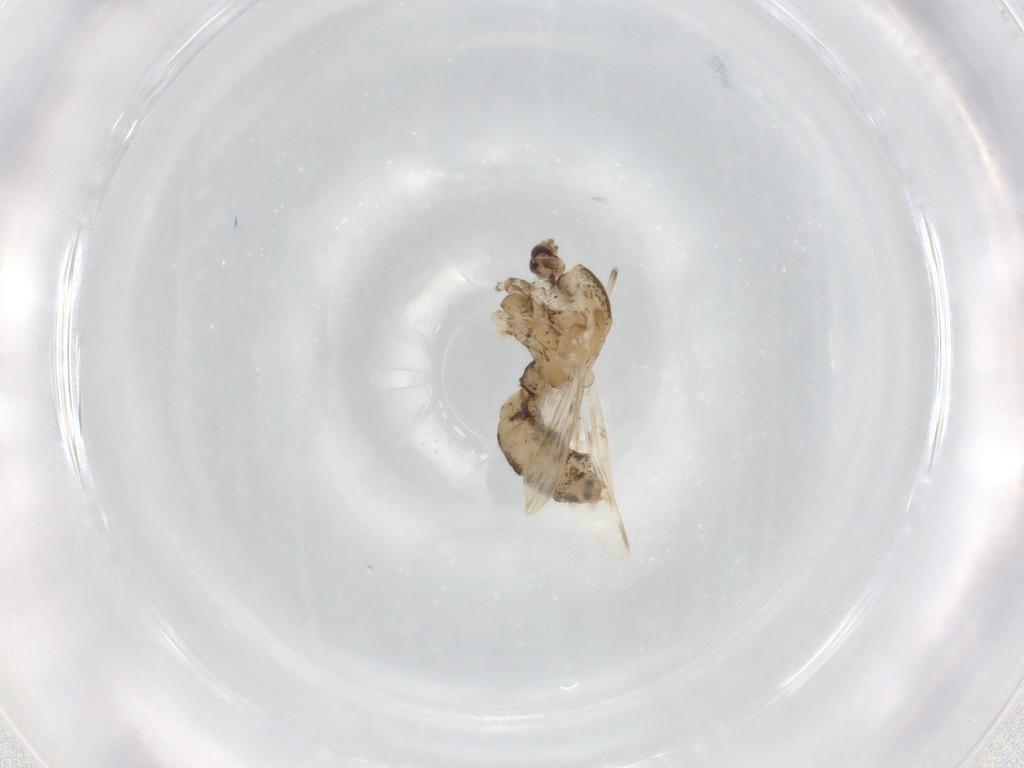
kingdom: Animalia
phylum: Arthropoda
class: Insecta
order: Diptera
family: Chaoboridae
